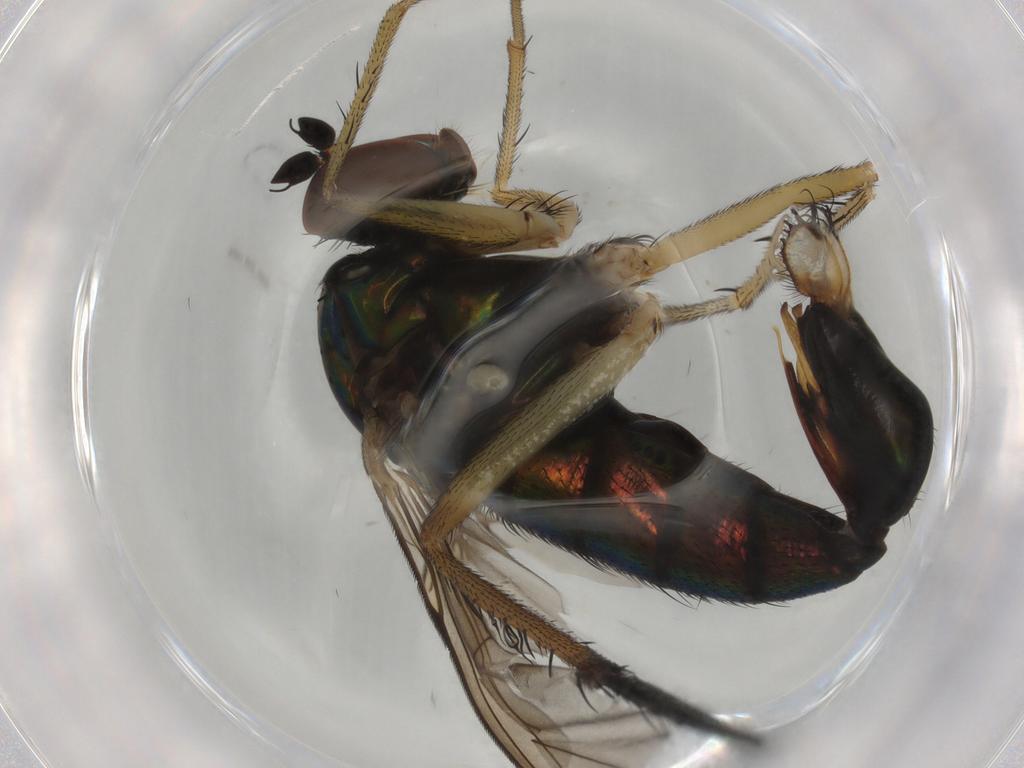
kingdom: Animalia
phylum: Arthropoda
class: Insecta
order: Diptera
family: Dolichopodidae
